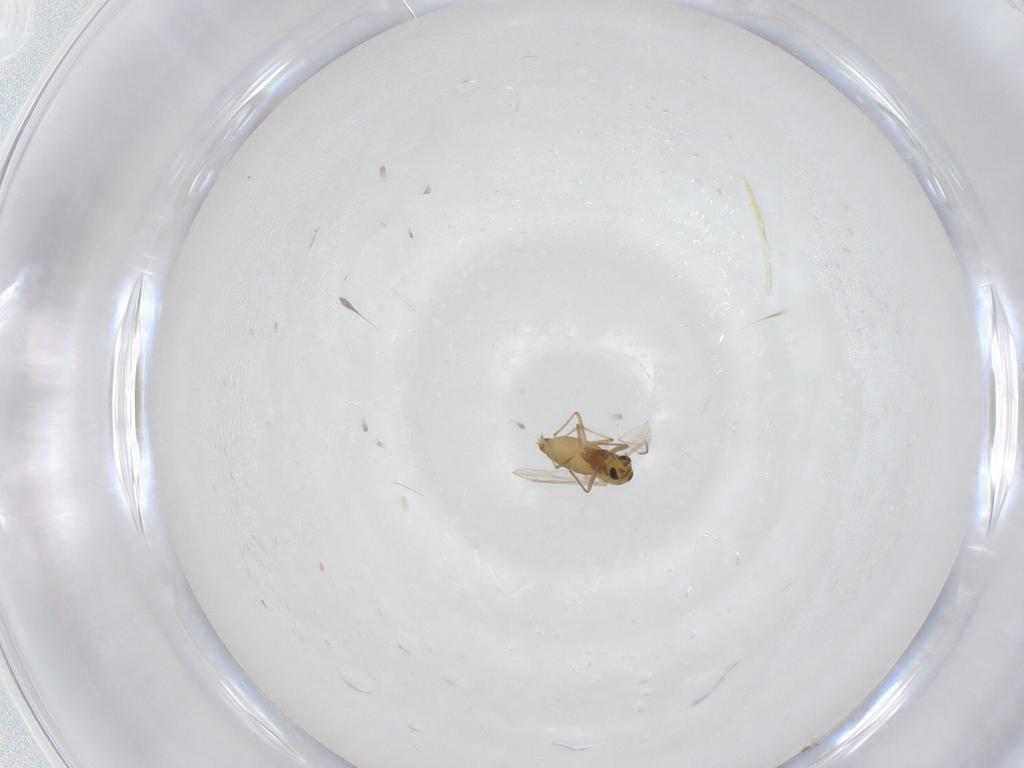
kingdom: Animalia
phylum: Arthropoda
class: Insecta
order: Diptera
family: Chironomidae
